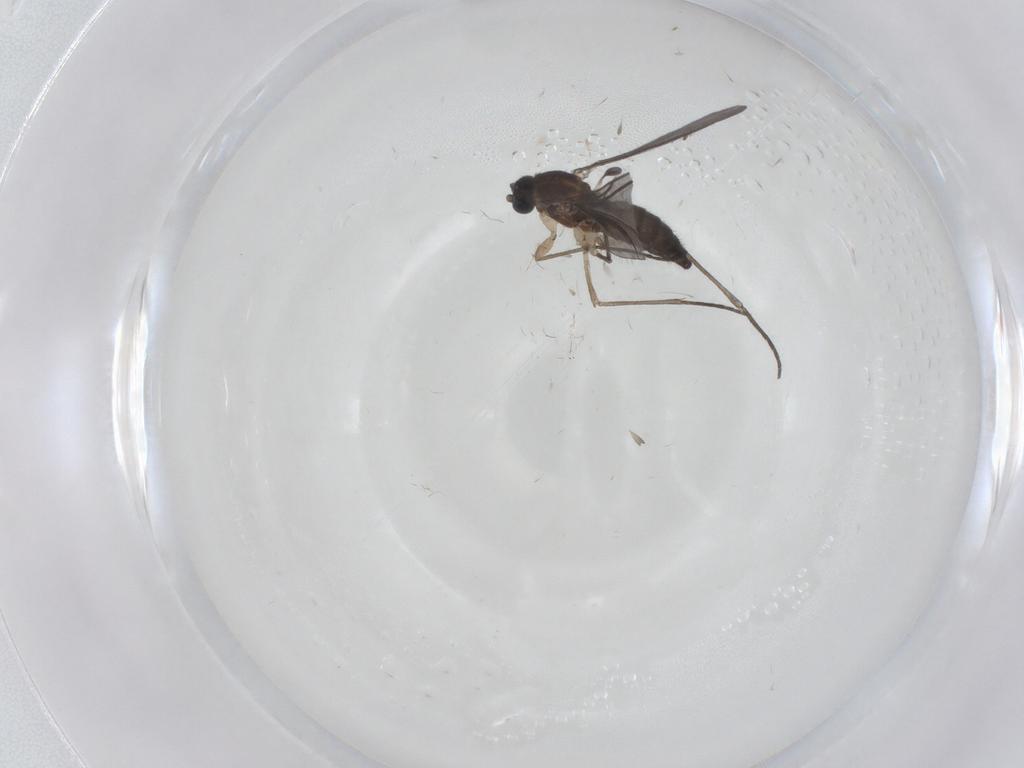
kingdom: Animalia
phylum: Arthropoda
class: Insecta
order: Diptera
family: Sciaridae
